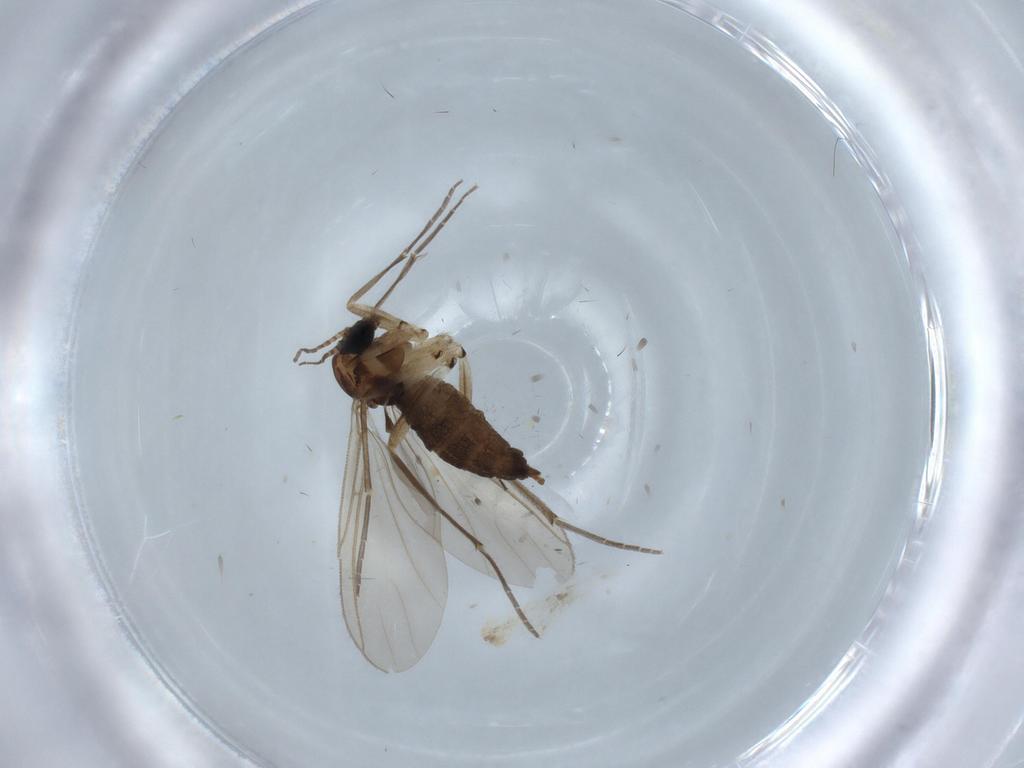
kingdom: Animalia
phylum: Arthropoda
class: Insecta
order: Diptera
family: Sciaridae
